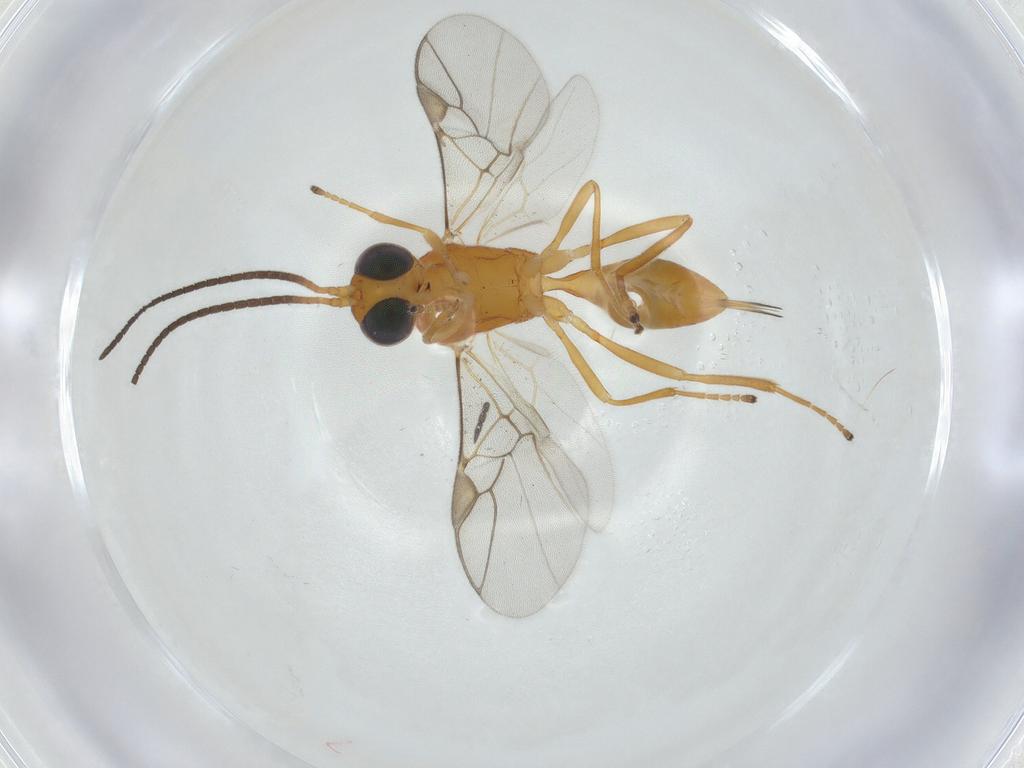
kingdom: Animalia
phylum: Arthropoda
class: Insecta
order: Hymenoptera
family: Braconidae
